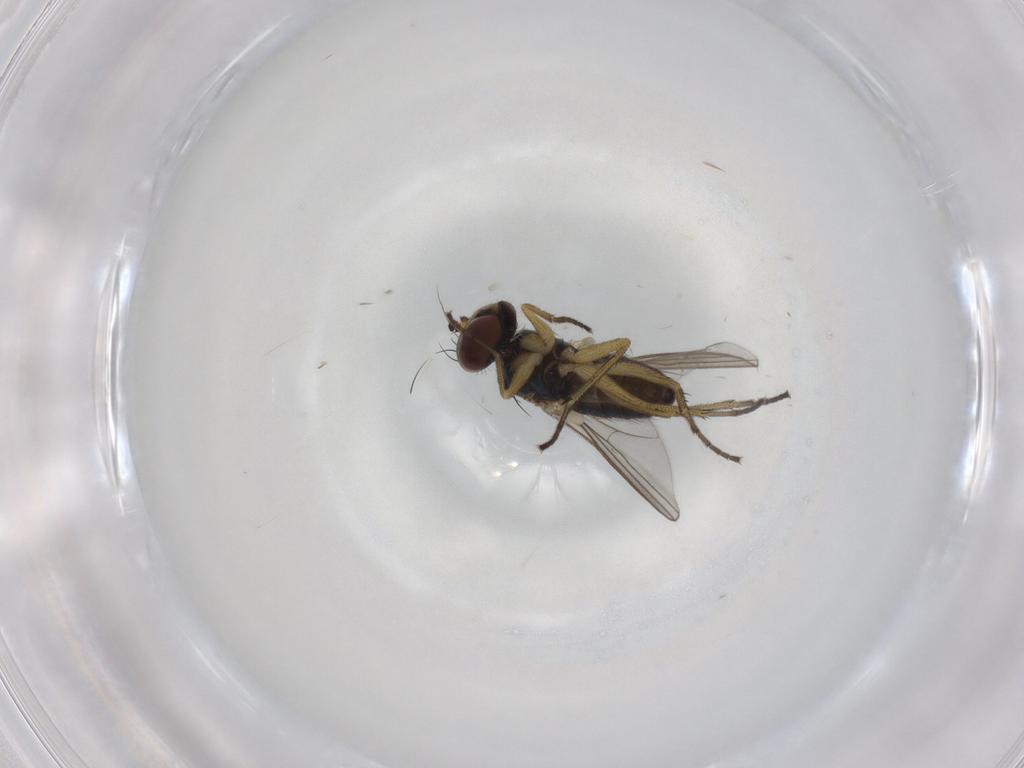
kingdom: Animalia
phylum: Arthropoda
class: Insecta
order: Diptera
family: Dolichopodidae
